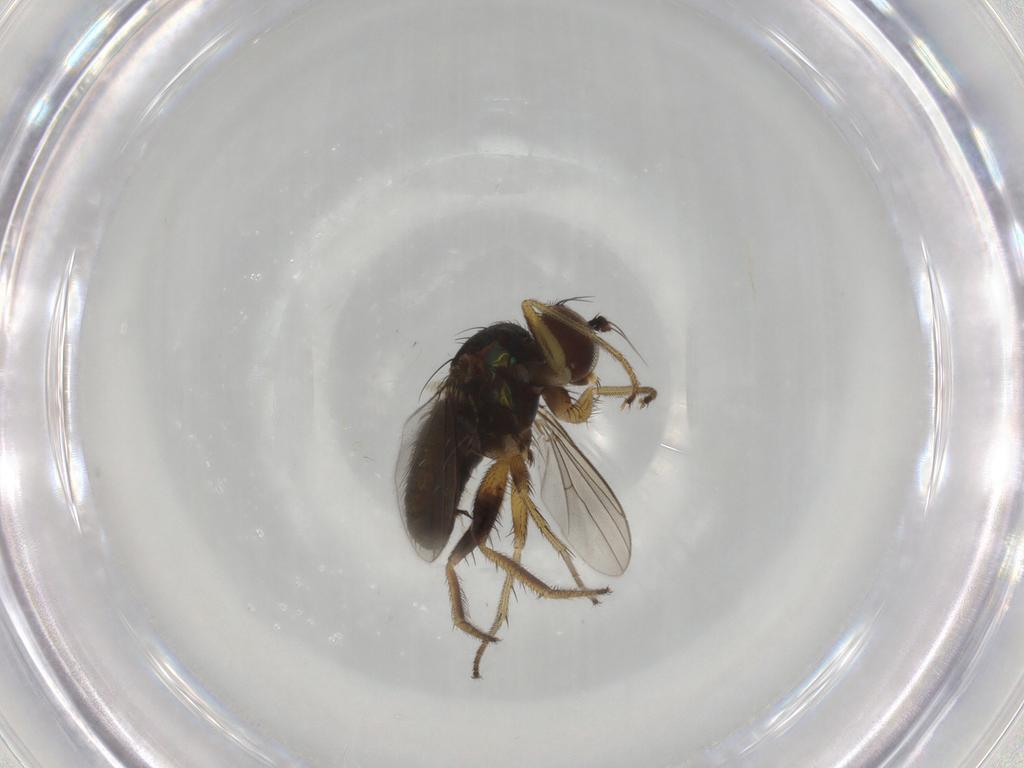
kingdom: Animalia
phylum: Arthropoda
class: Insecta
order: Diptera
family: Dolichopodidae
